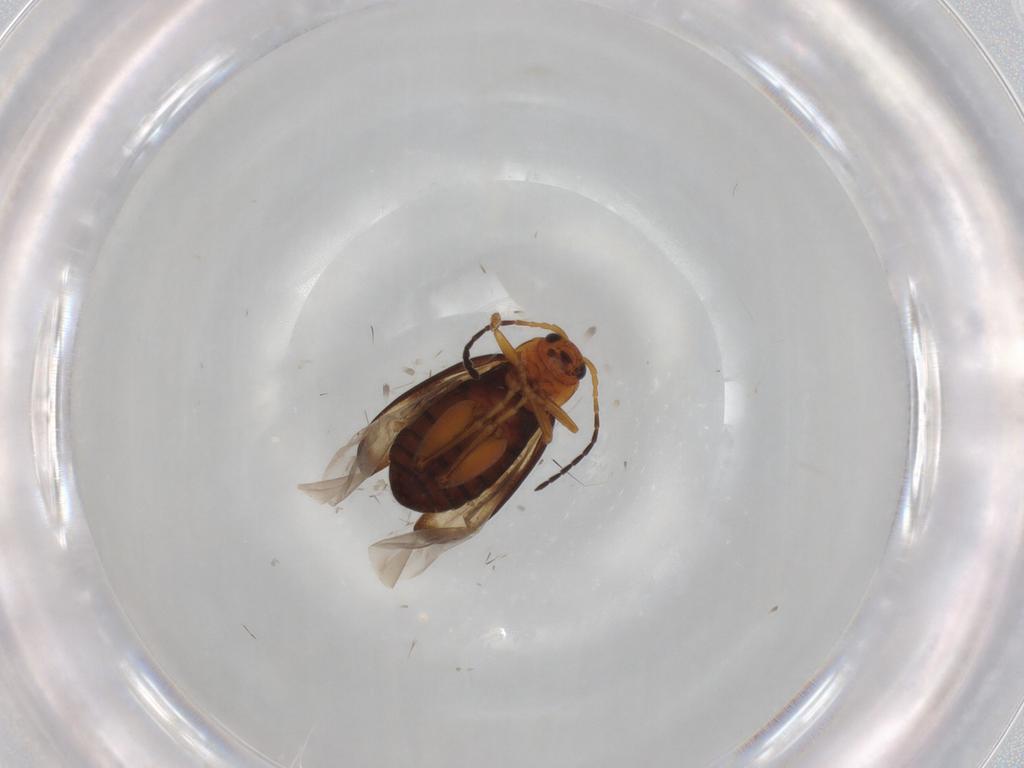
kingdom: Animalia
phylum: Arthropoda
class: Insecta
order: Coleoptera
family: Chrysomelidae
